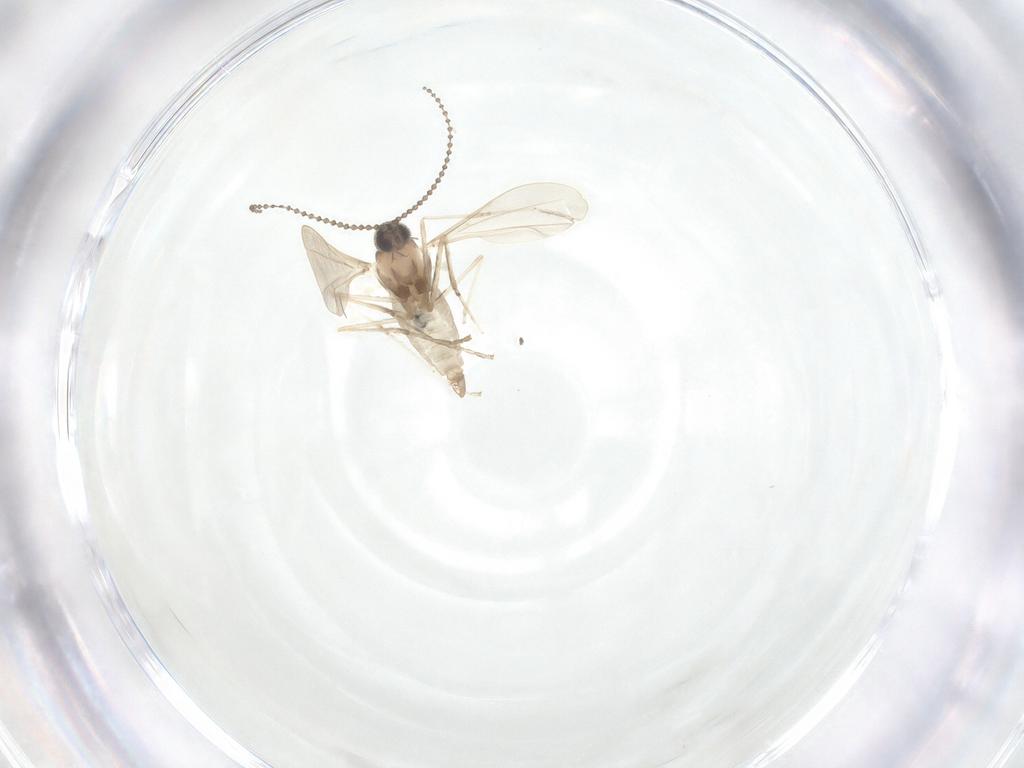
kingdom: Animalia
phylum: Arthropoda
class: Insecta
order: Diptera
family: Cecidomyiidae
